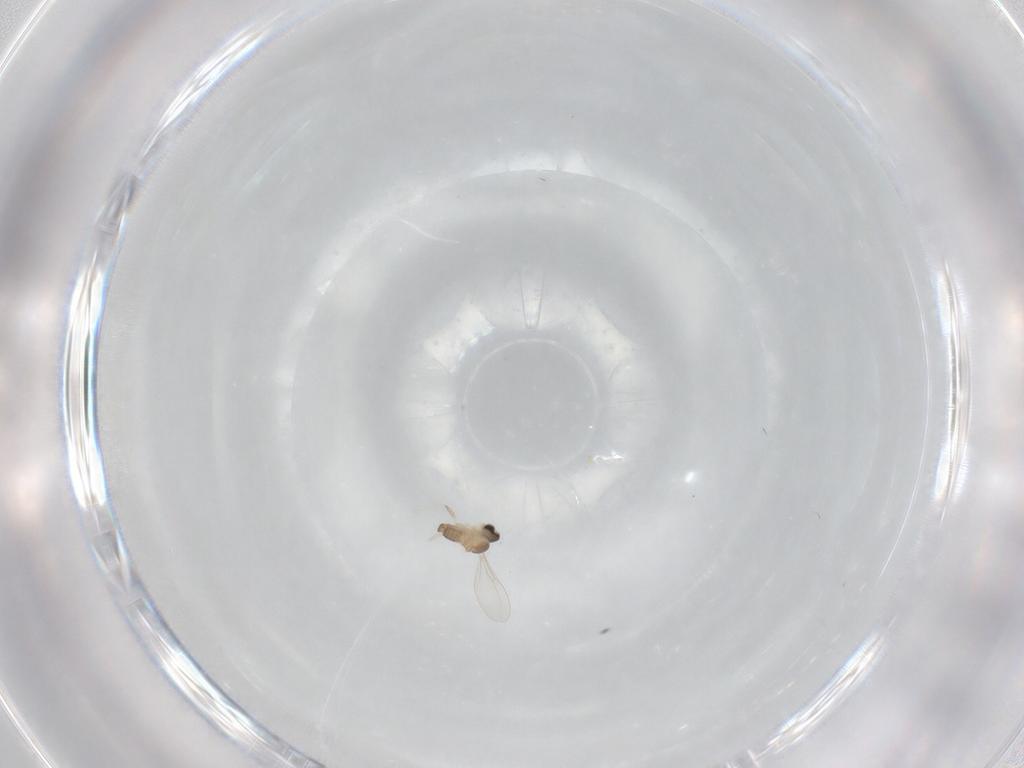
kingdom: Animalia
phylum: Arthropoda
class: Insecta
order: Diptera
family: Cecidomyiidae
